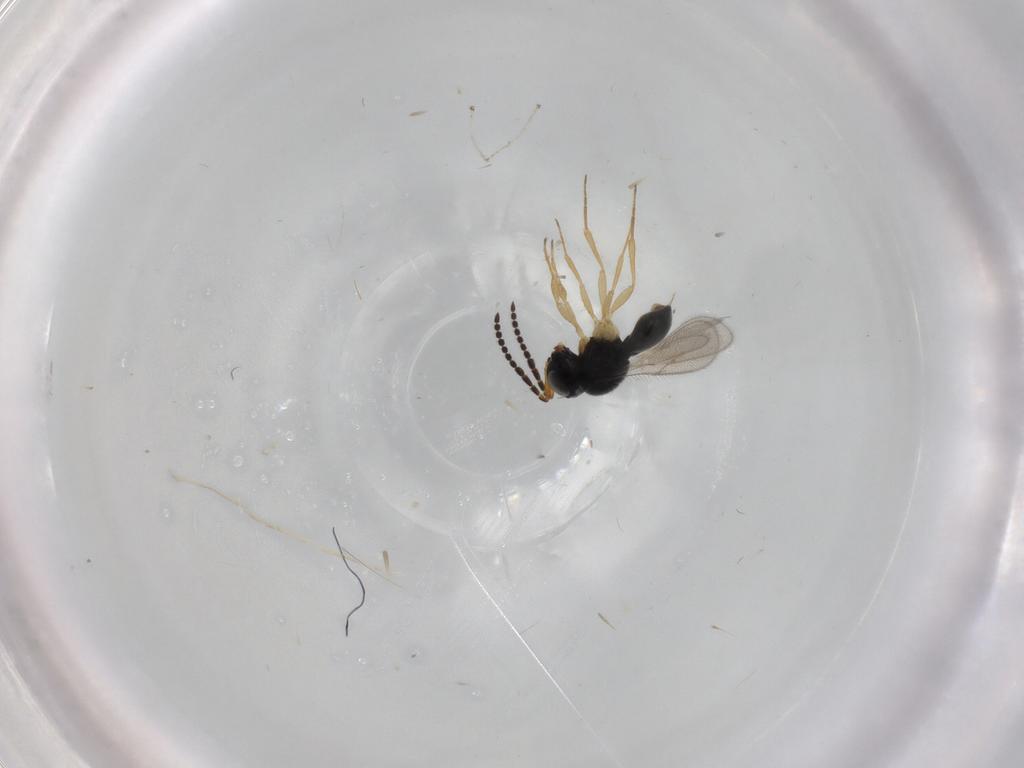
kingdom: Animalia
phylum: Arthropoda
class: Insecta
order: Hymenoptera
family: Scelionidae
